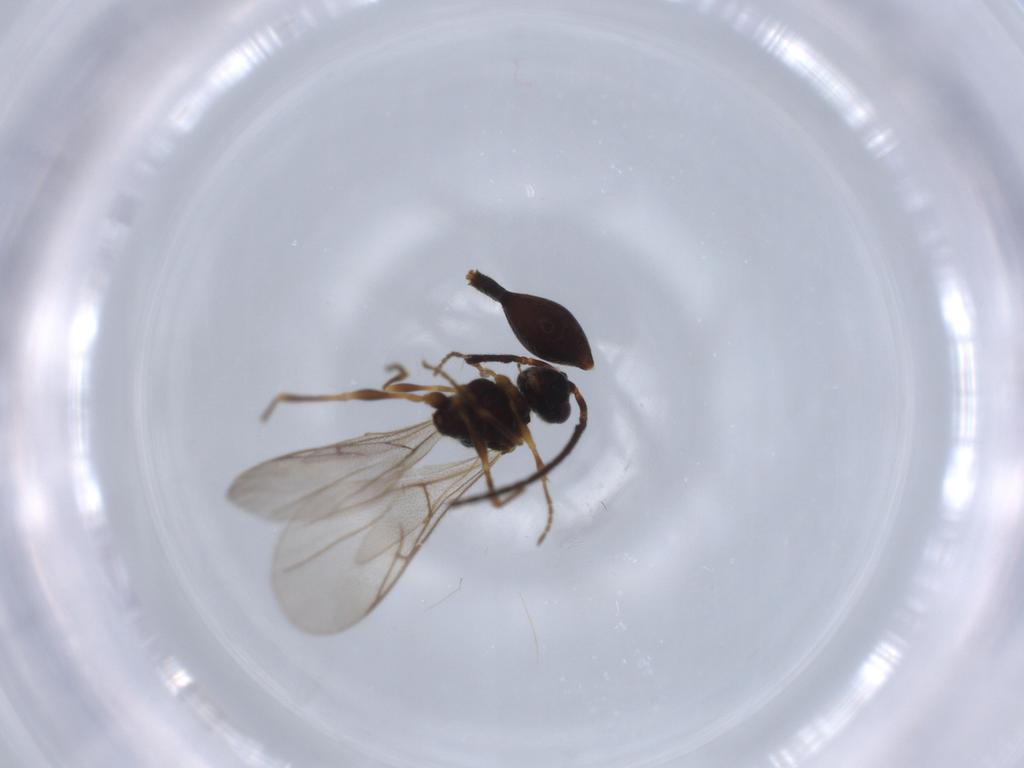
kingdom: Animalia
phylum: Arthropoda
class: Insecta
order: Hymenoptera
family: Diapriidae
